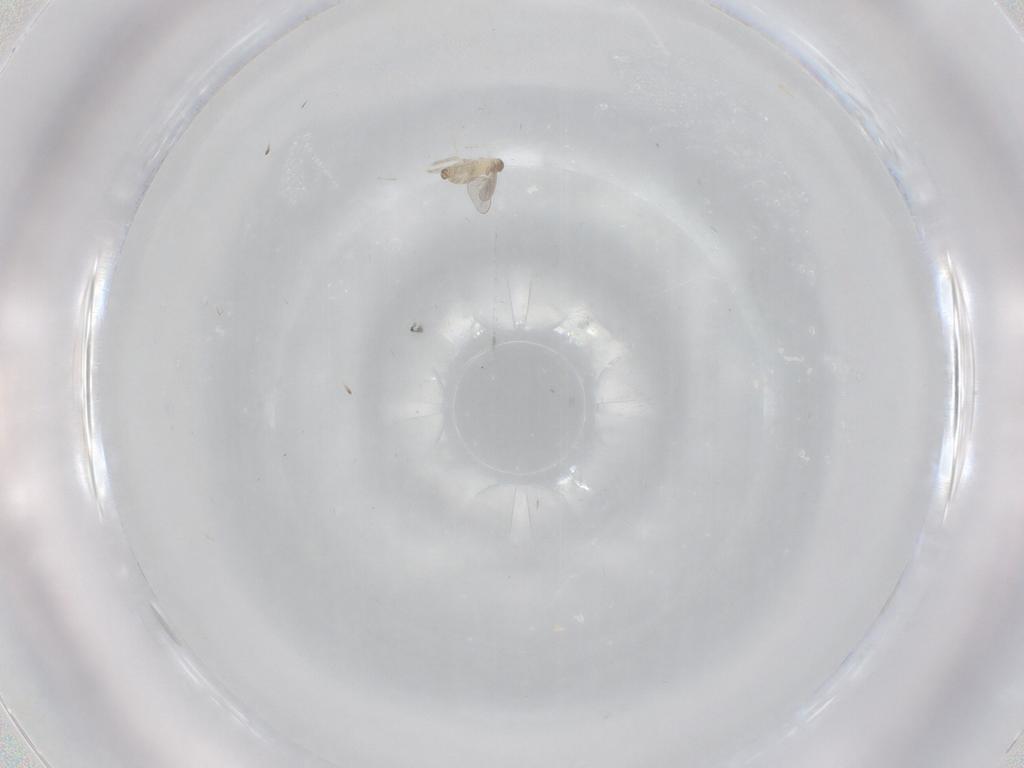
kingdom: Animalia
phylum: Arthropoda
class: Insecta
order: Diptera
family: Cecidomyiidae
